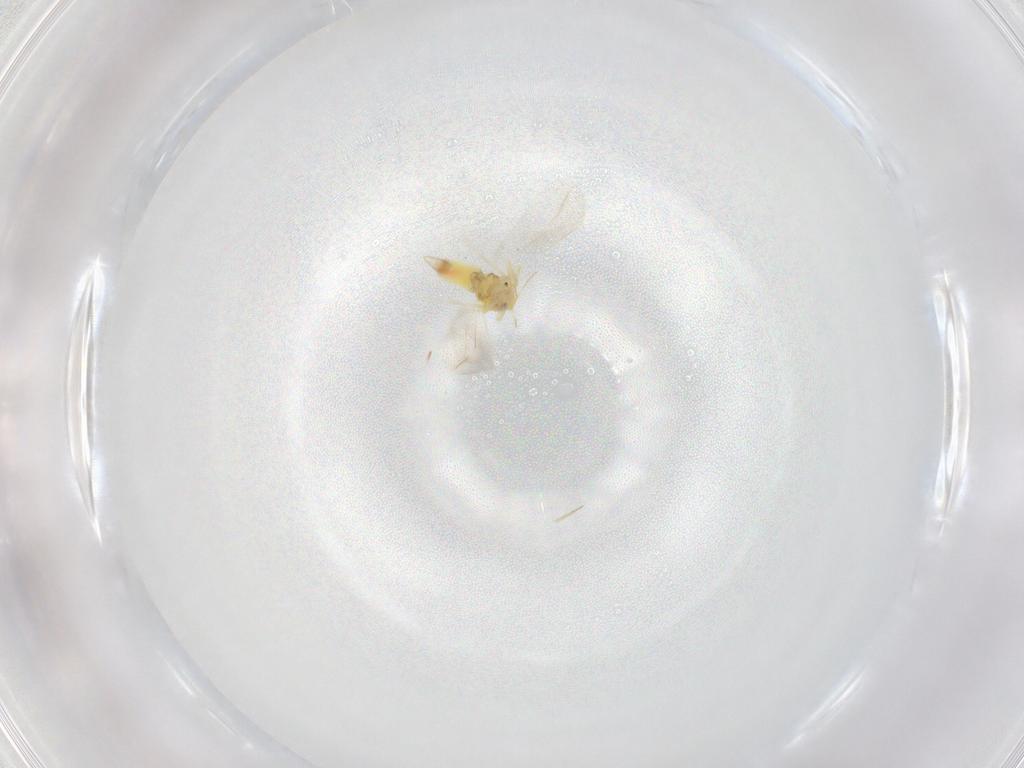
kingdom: Animalia
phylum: Arthropoda
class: Insecta
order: Hemiptera
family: Aleyrodidae
